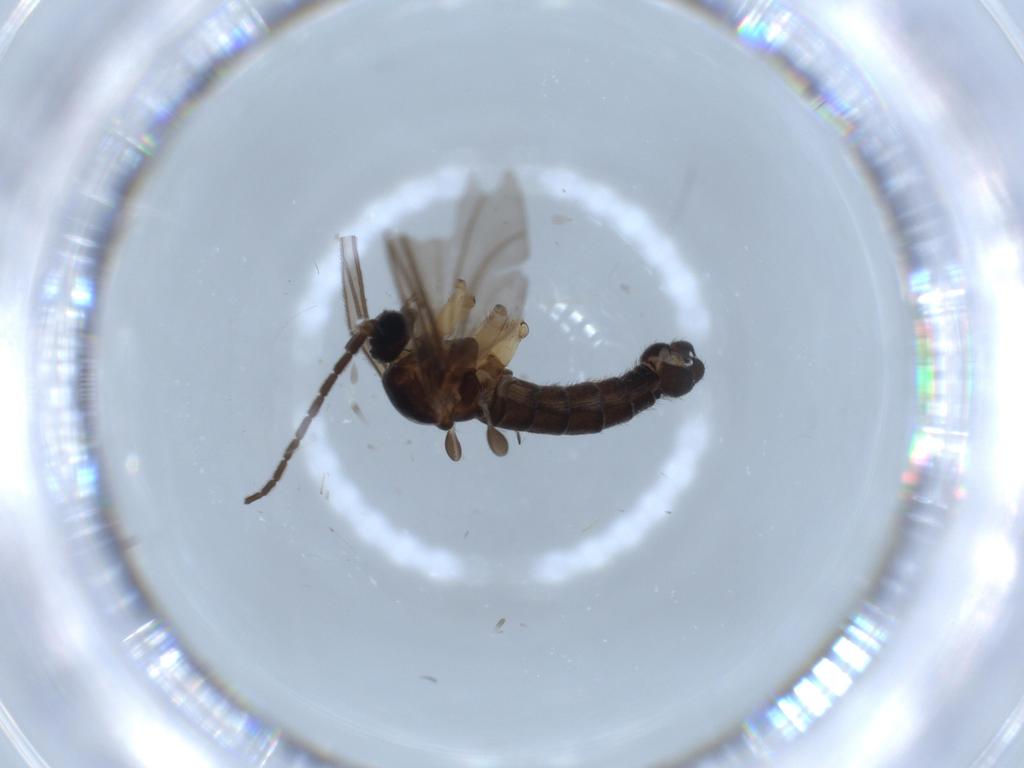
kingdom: Animalia
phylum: Arthropoda
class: Insecta
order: Diptera
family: Sciaridae
